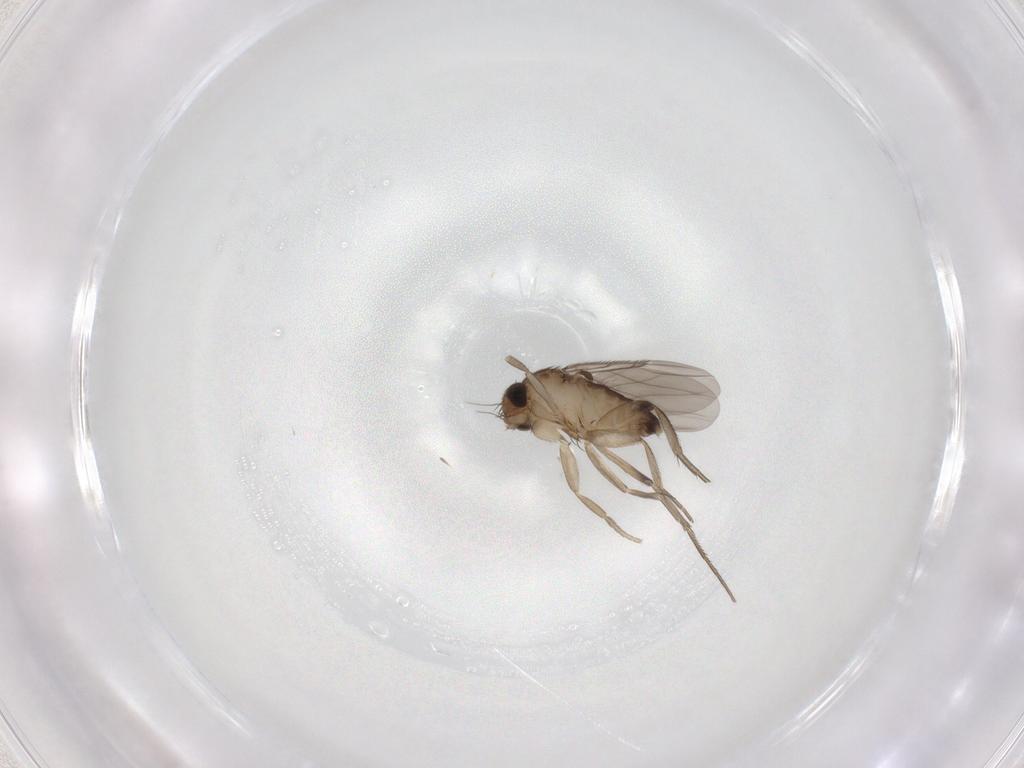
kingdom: Animalia
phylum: Arthropoda
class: Insecta
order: Diptera
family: Phoridae
